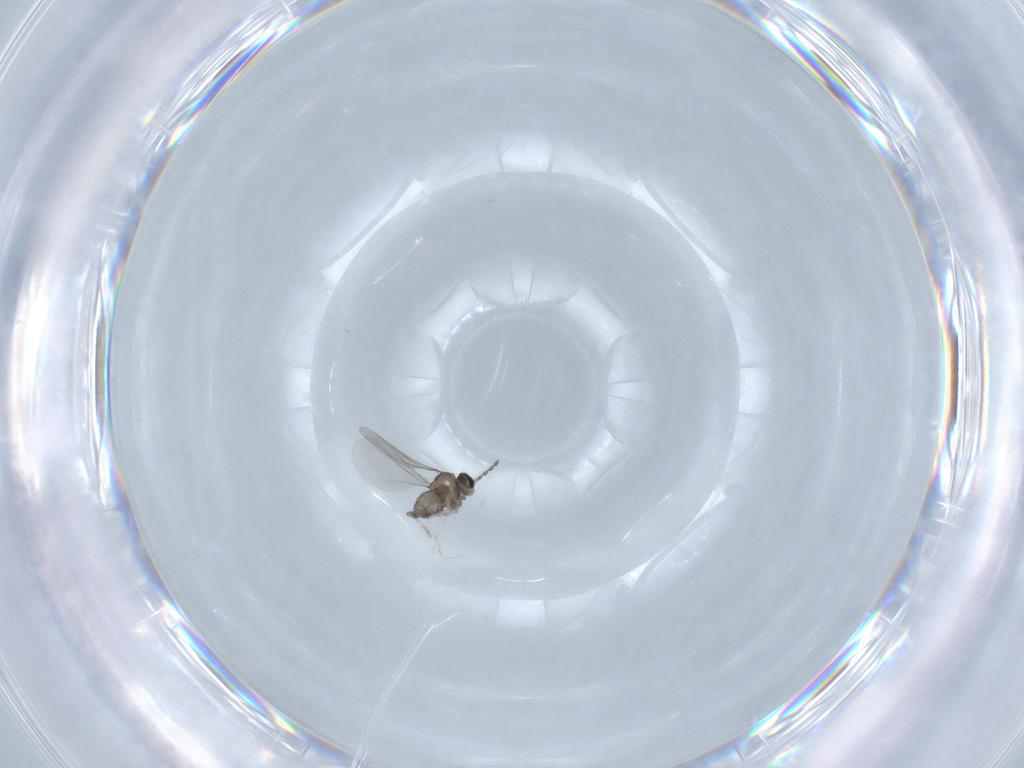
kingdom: Animalia
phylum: Arthropoda
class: Insecta
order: Diptera
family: Cecidomyiidae
